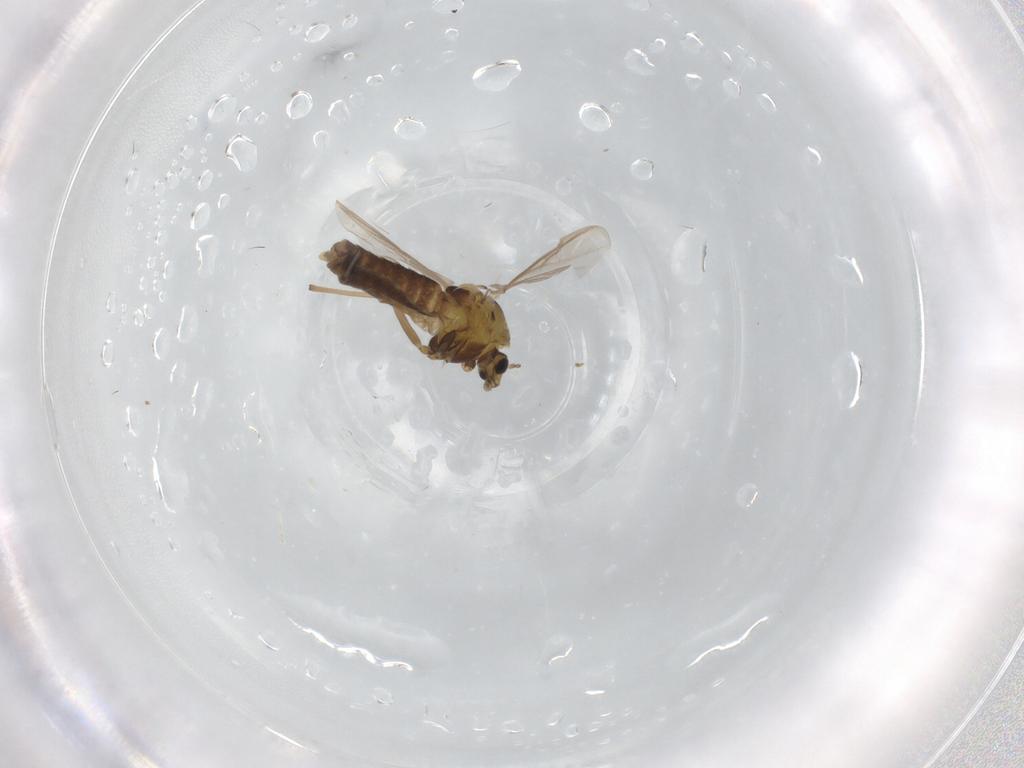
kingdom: Animalia
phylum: Arthropoda
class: Insecta
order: Diptera
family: Chironomidae
